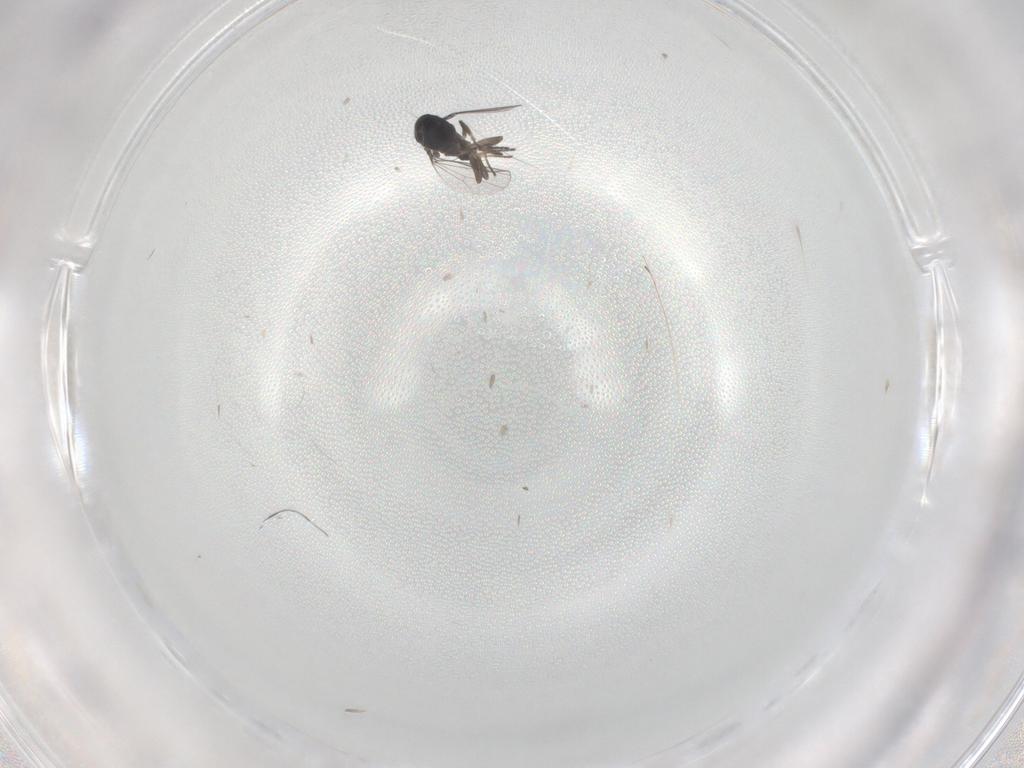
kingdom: Animalia
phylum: Arthropoda
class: Insecta
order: Diptera
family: Dolichopodidae
